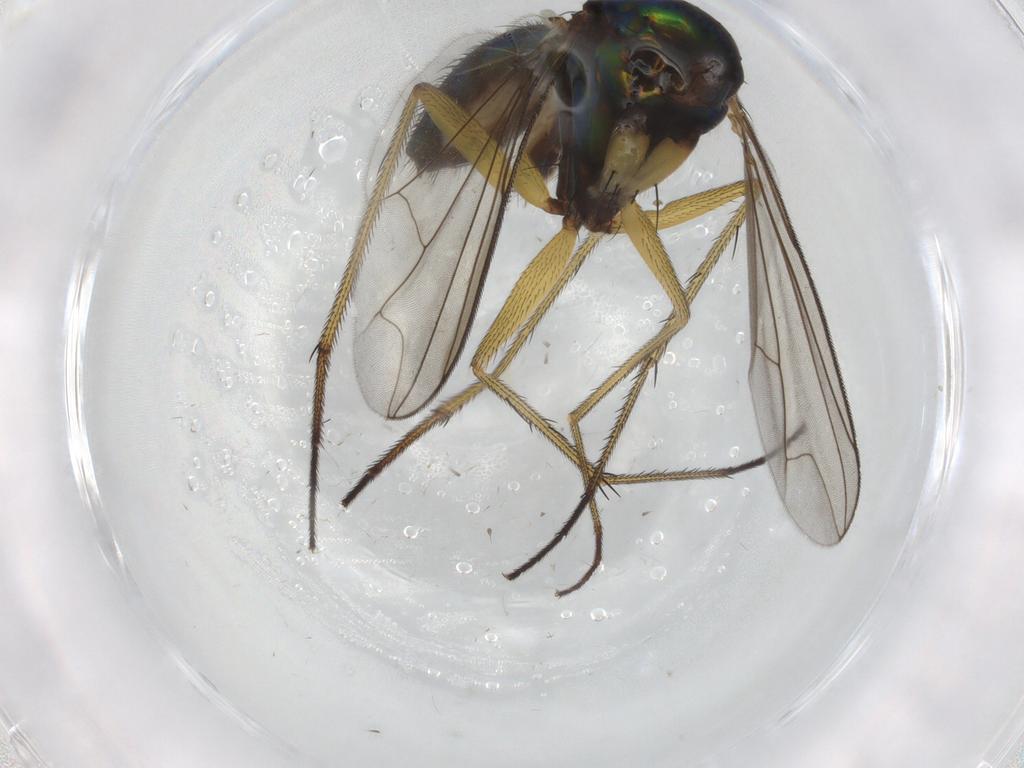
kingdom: Animalia
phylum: Arthropoda
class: Insecta
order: Diptera
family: Dolichopodidae
